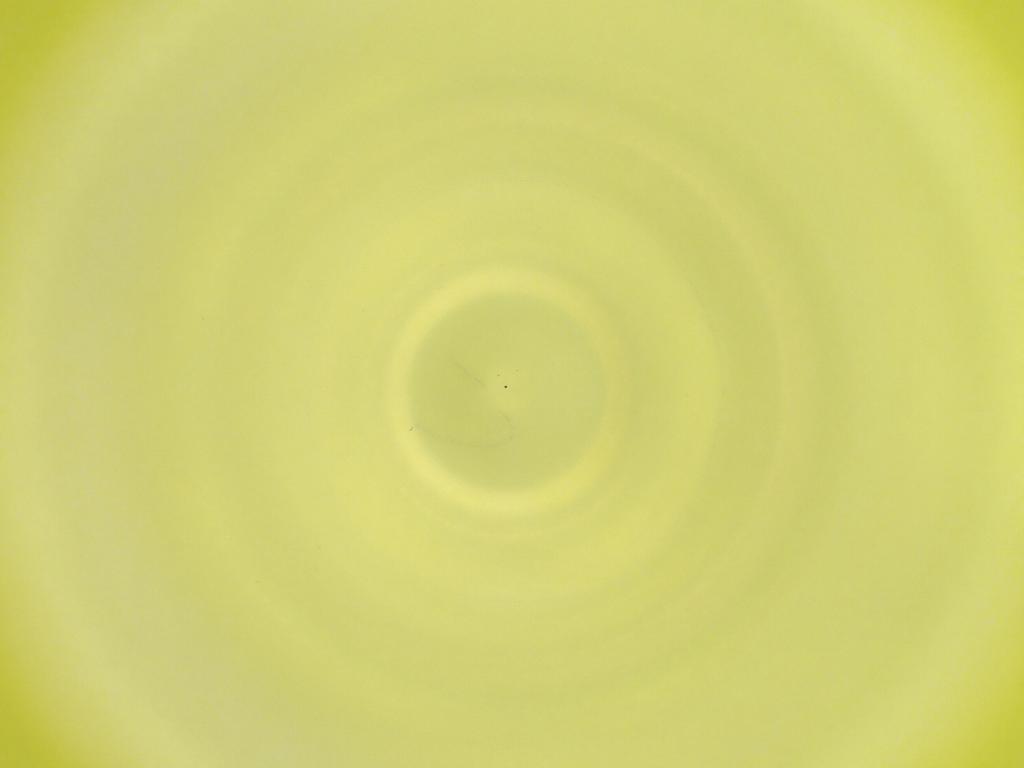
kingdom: Animalia
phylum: Arthropoda
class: Insecta
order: Diptera
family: Cecidomyiidae
